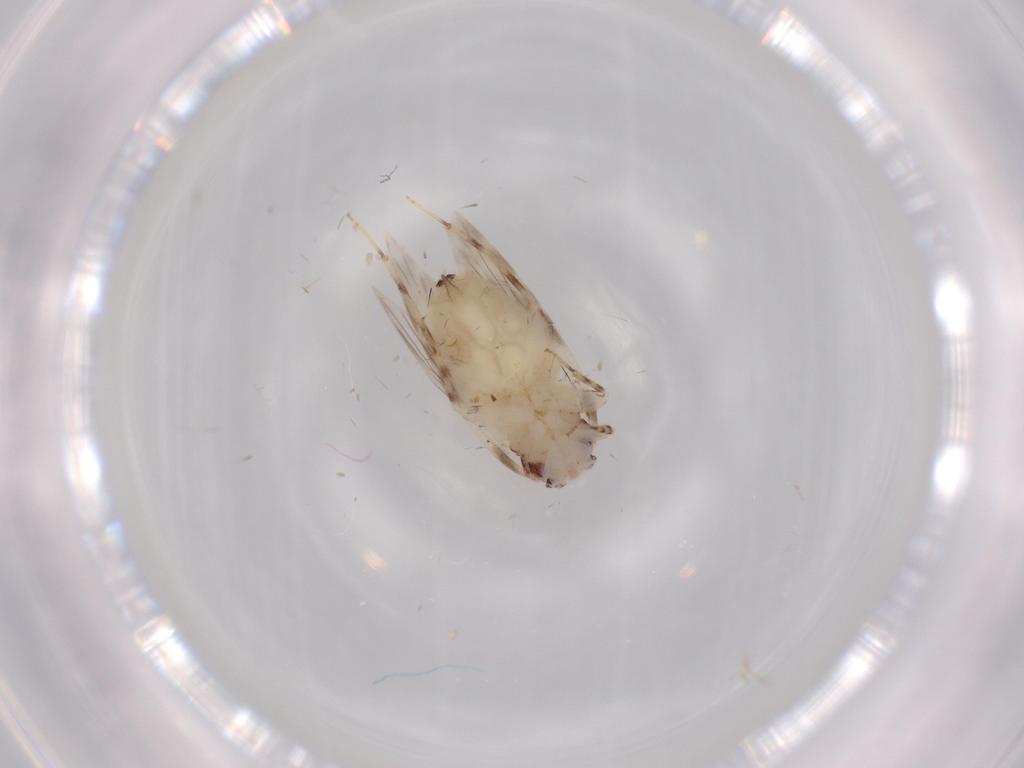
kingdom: Animalia
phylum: Arthropoda
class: Insecta
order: Psocodea
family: Lepidopsocidae
